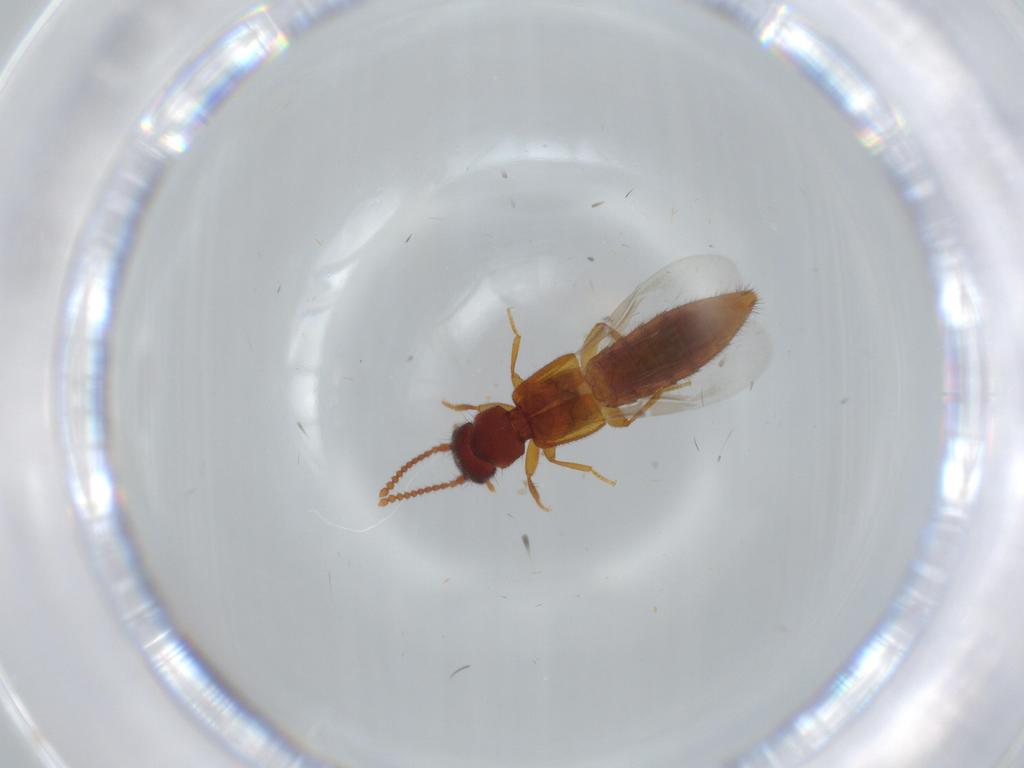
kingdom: Animalia
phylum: Arthropoda
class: Insecta
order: Coleoptera
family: Staphylinidae
